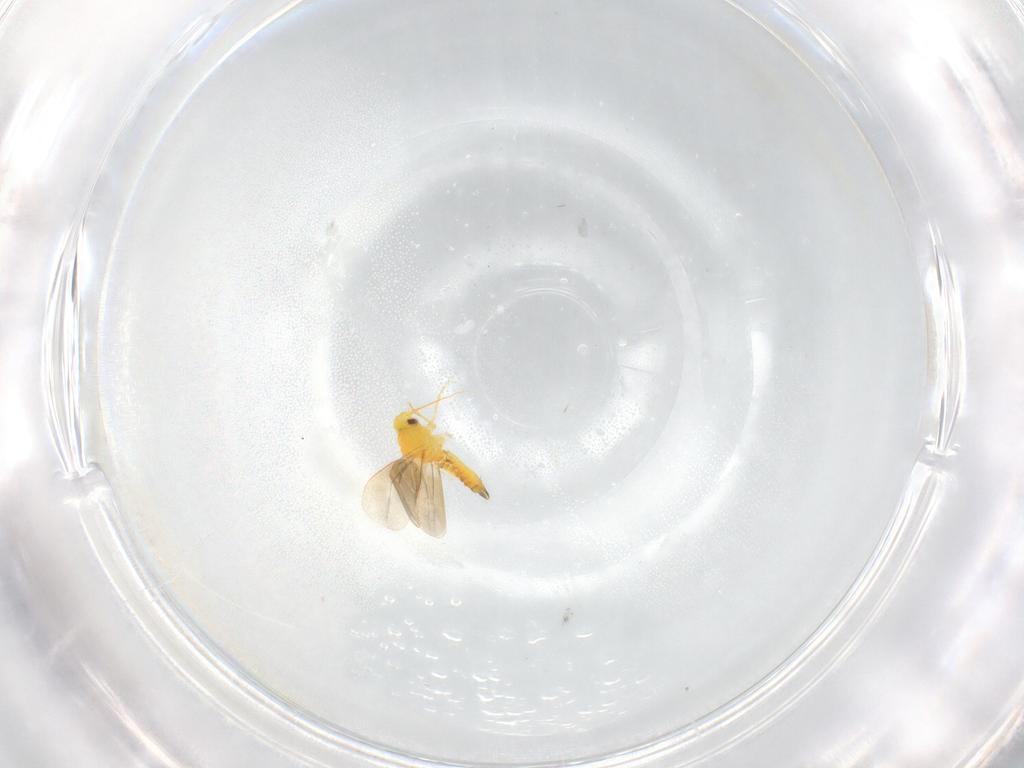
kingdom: Animalia
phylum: Arthropoda
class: Insecta
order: Hemiptera
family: Aleyrodidae
